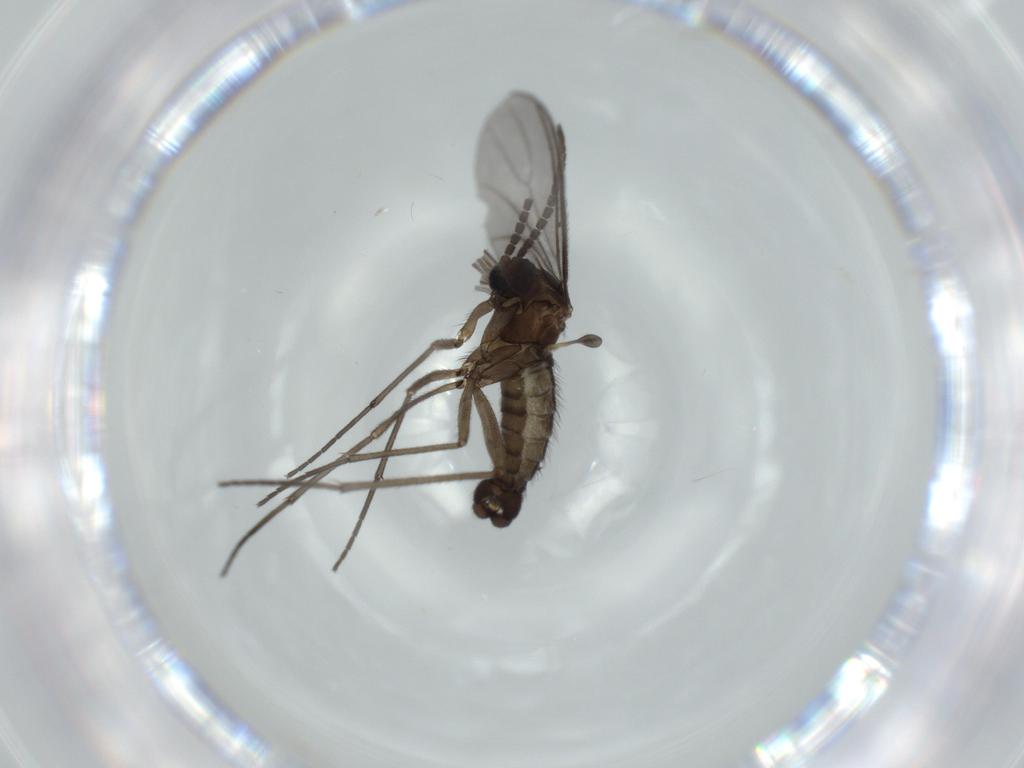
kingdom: Animalia
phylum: Arthropoda
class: Insecta
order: Diptera
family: Sciaridae
